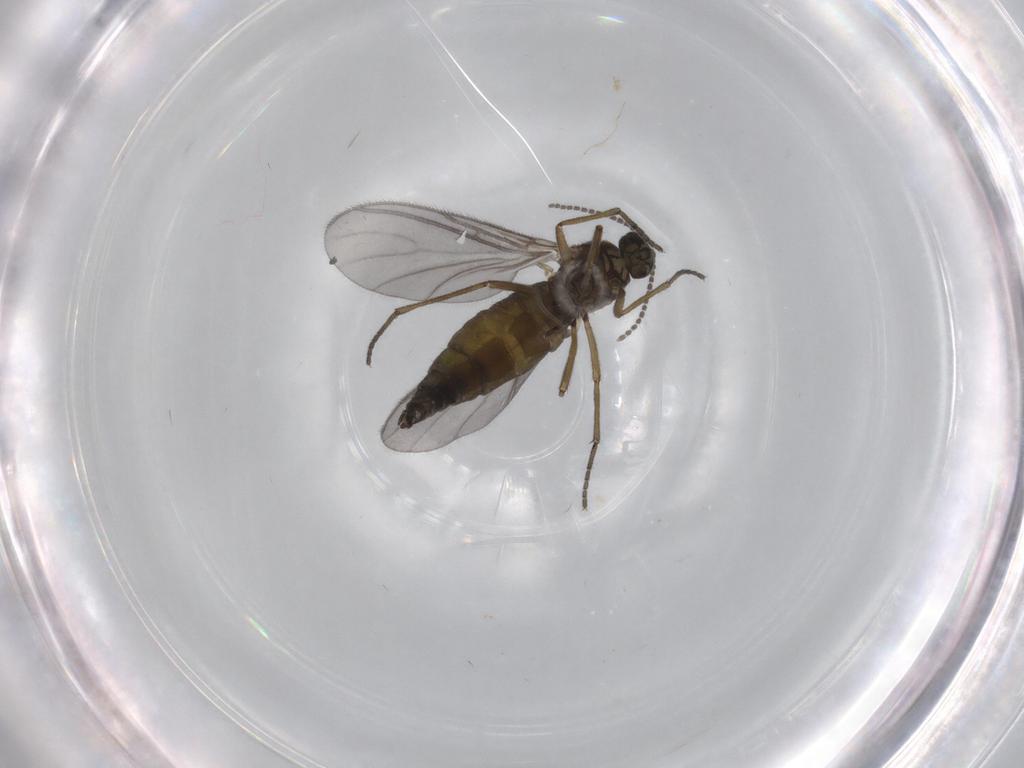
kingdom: Animalia
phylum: Arthropoda
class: Insecta
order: Diptera
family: Sciaridae
